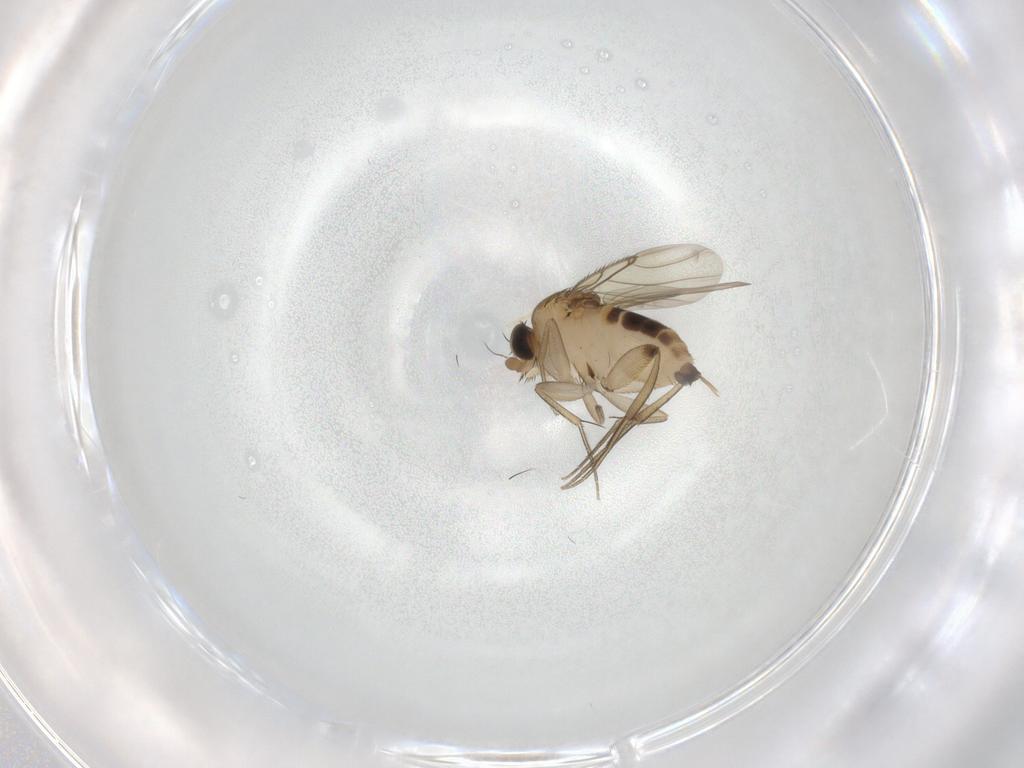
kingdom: Animalia
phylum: Arthropoda
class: Insecta
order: Diptera
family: Phoridae
